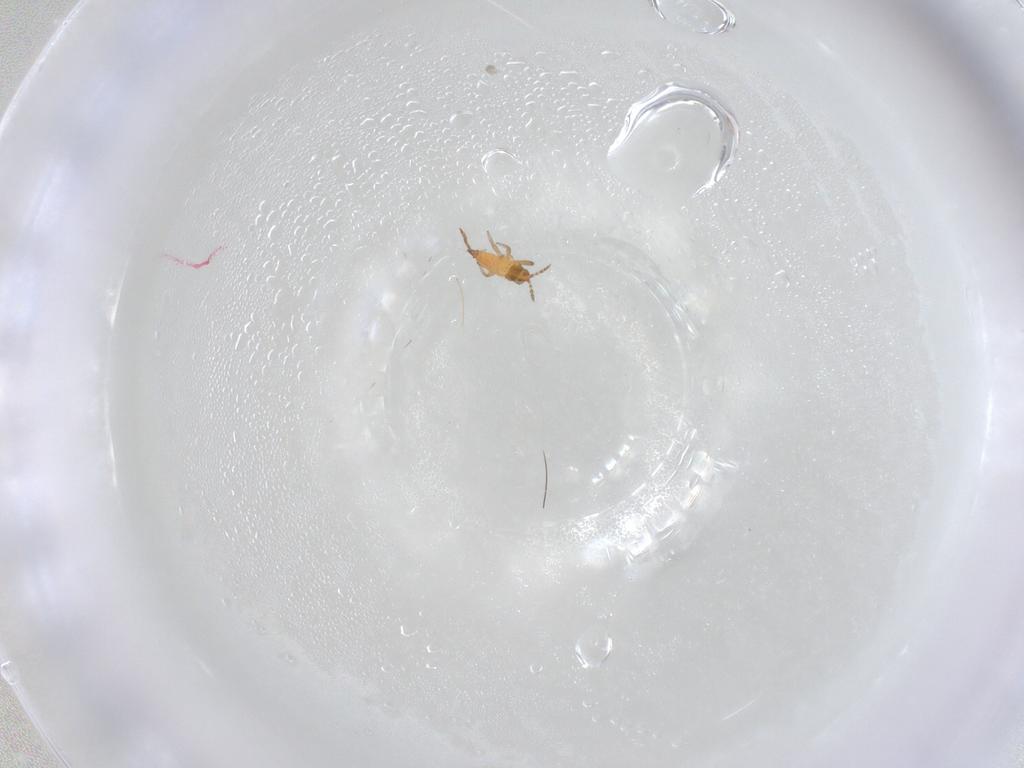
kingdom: Animalia
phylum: Arthropoda
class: Insecta
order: Thysanoptera
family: Phlaeothripidae
